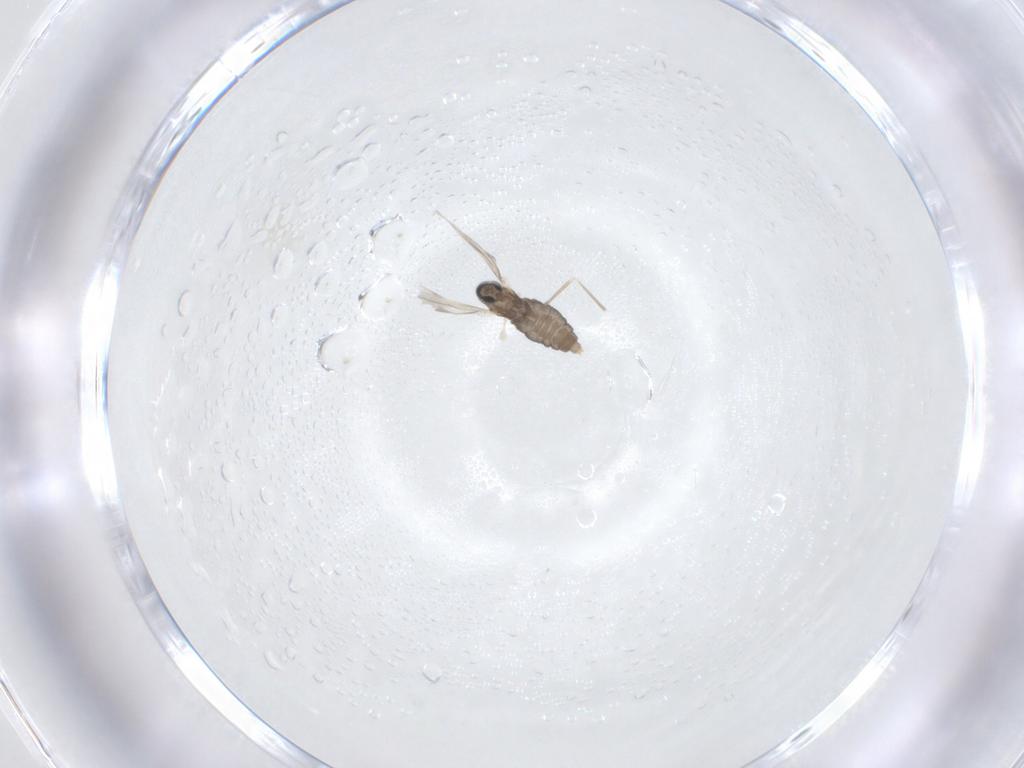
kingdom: Animalia
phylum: Arthropoda
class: Insecta
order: Diptera
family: Cecidomyiidae
